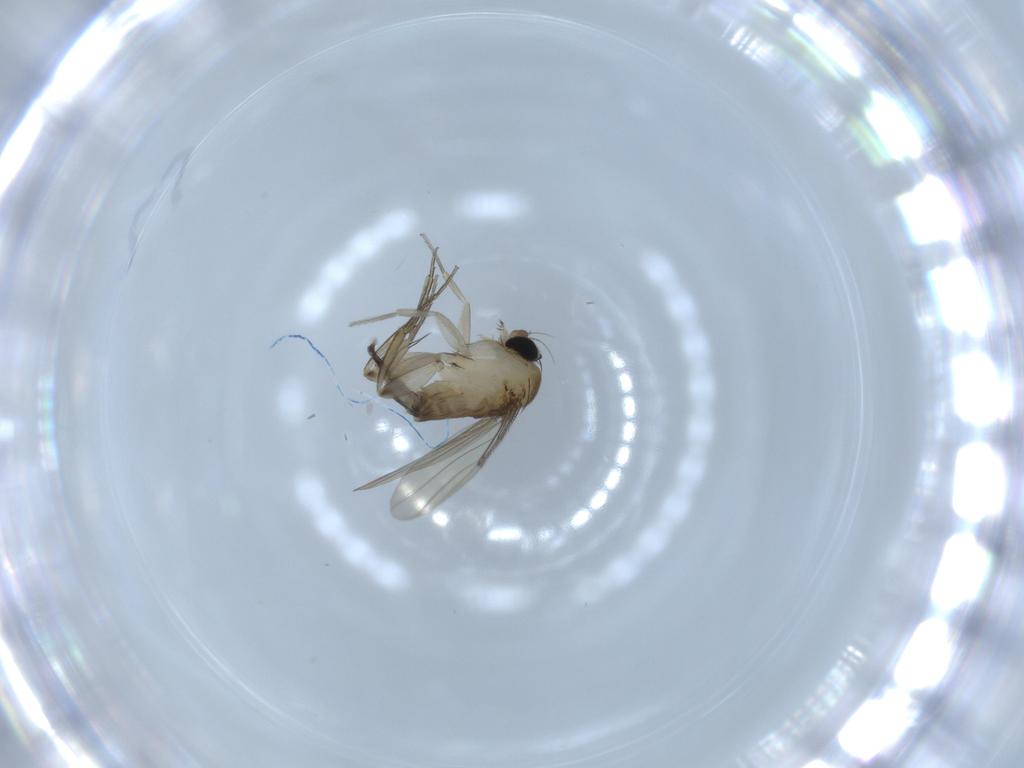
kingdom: Animalia
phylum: Arthropoda
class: Insecta
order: Diptera
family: Phoridae
